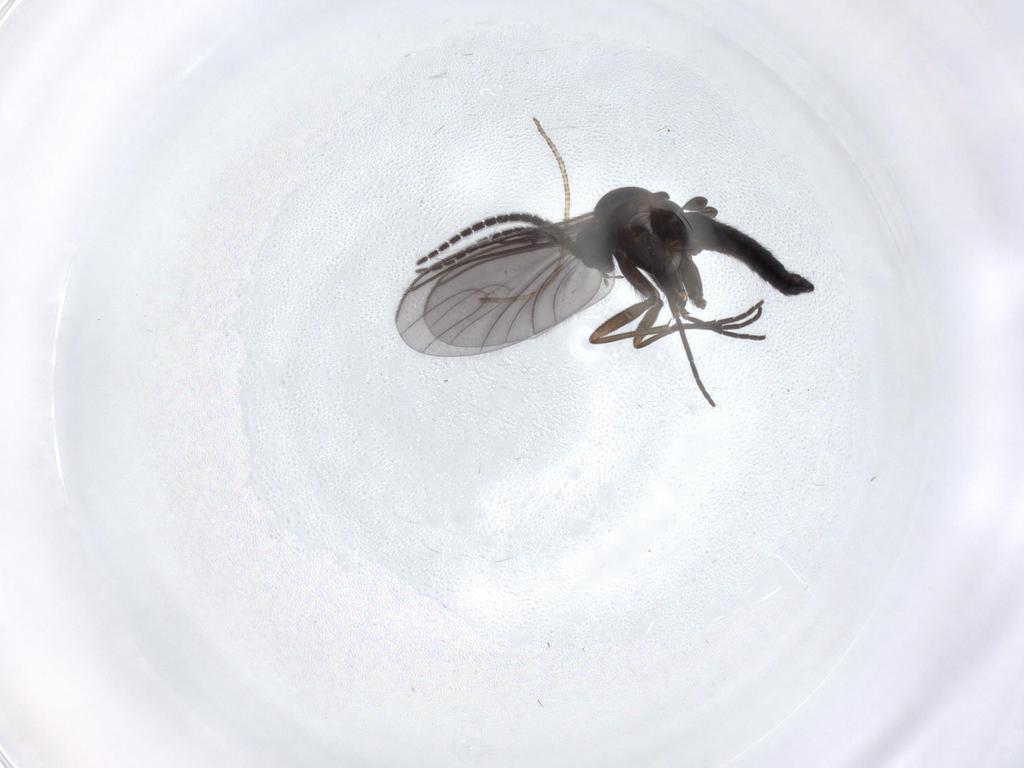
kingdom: Animalia
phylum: Arthropoda
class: Insecta
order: Diptera
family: Sciaridae
